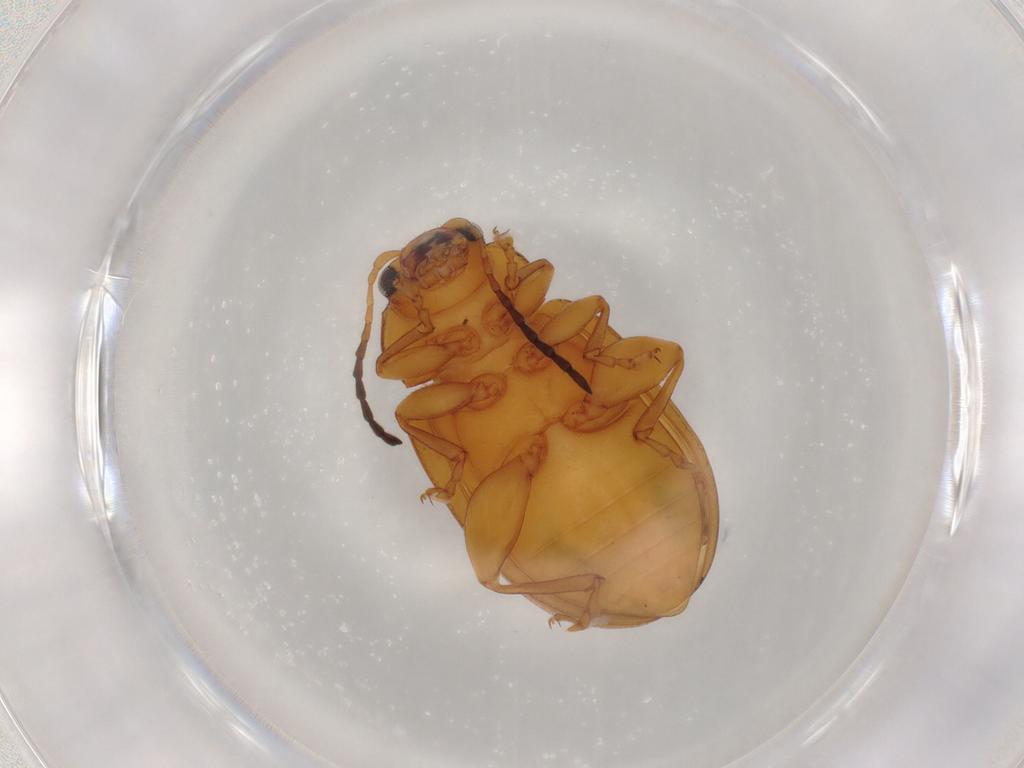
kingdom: Animalia
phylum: Arthropoda
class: Insecta
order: Coleoptera
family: Chrysomelidae
